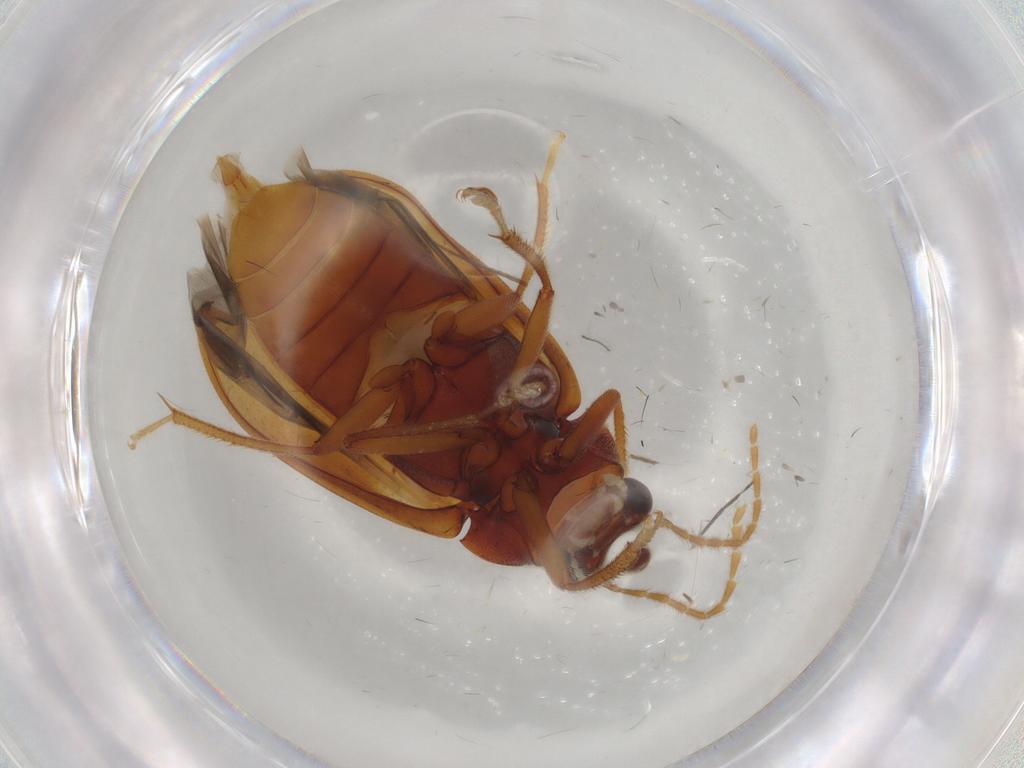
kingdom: Animalia
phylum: Arthropoda
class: Insecta
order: Coleoptera
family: Ptilodactylidae
